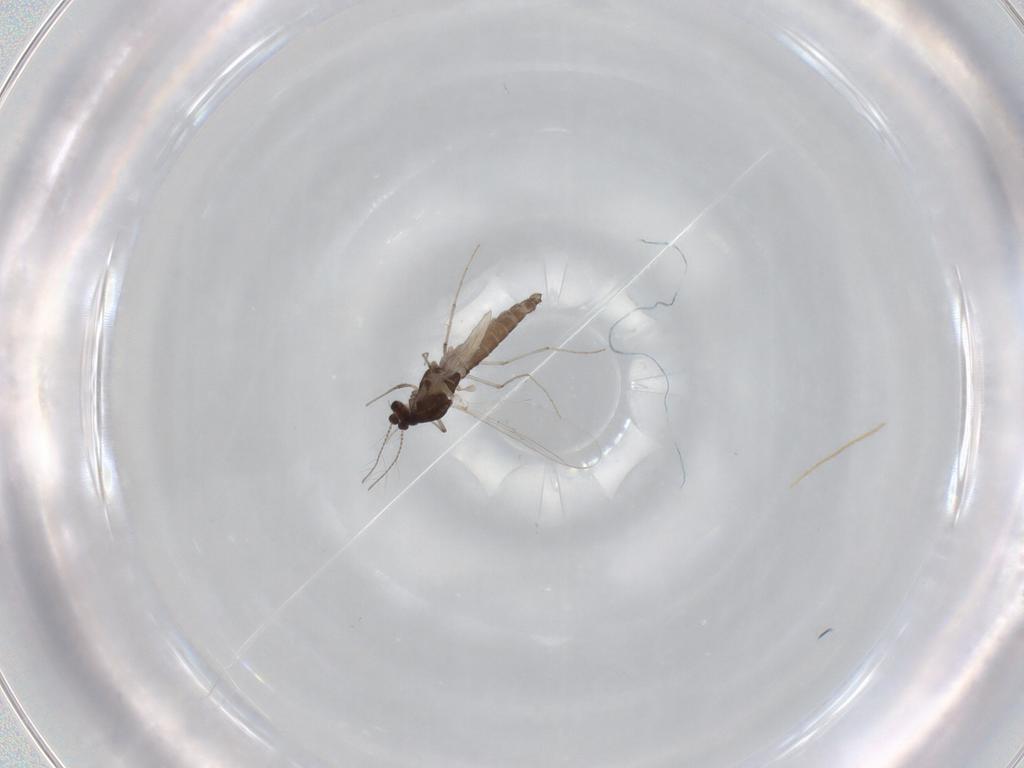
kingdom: Animalia
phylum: Arthropoda
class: Insecta
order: Diptera
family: Chironomidae
